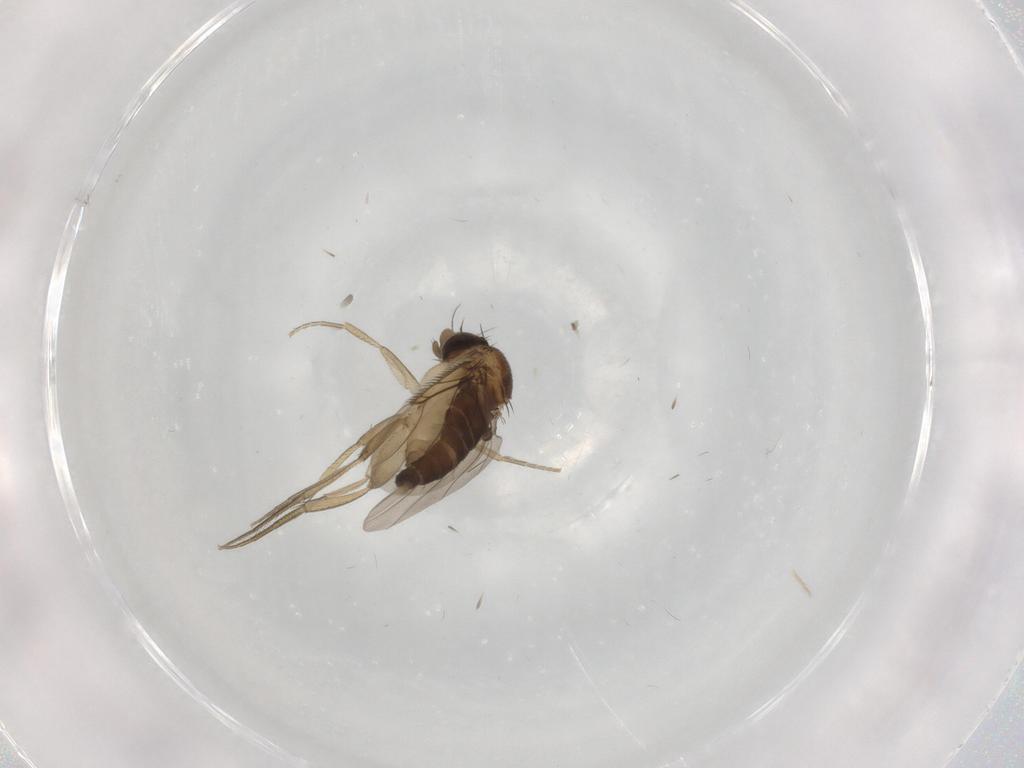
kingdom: Animalia
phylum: Arthropoda
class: Insecta
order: Diptera
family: Phoridae
